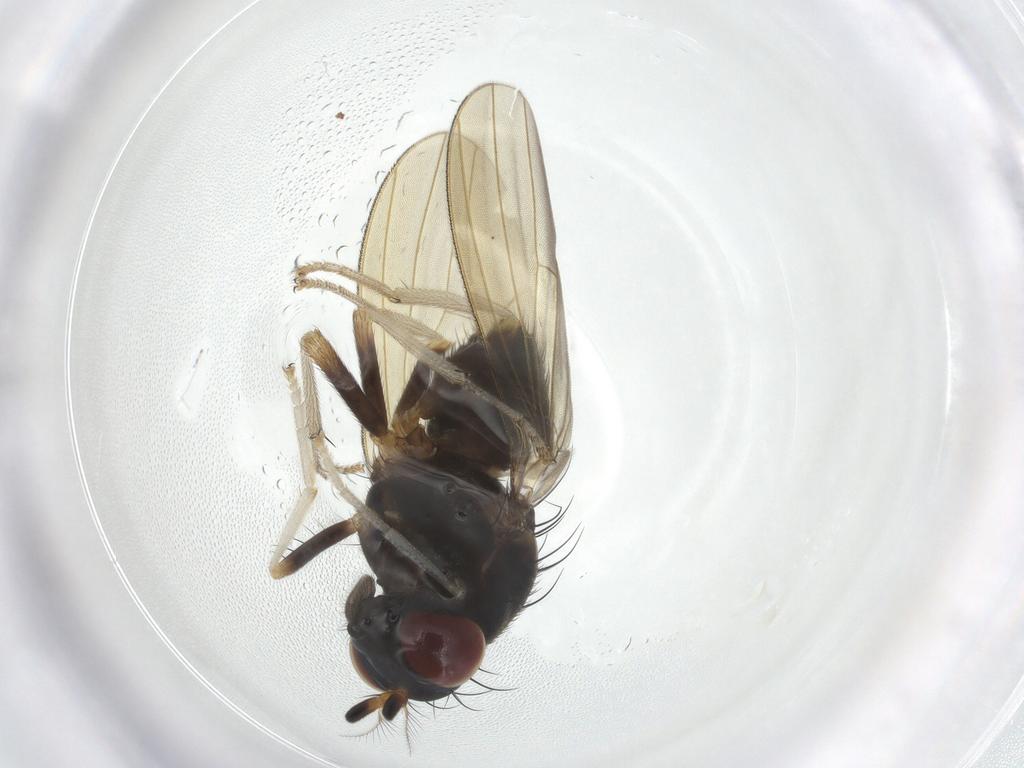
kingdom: Animalia
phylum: Arthropoda
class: Insecta
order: Diptera
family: Lauxaniidae
